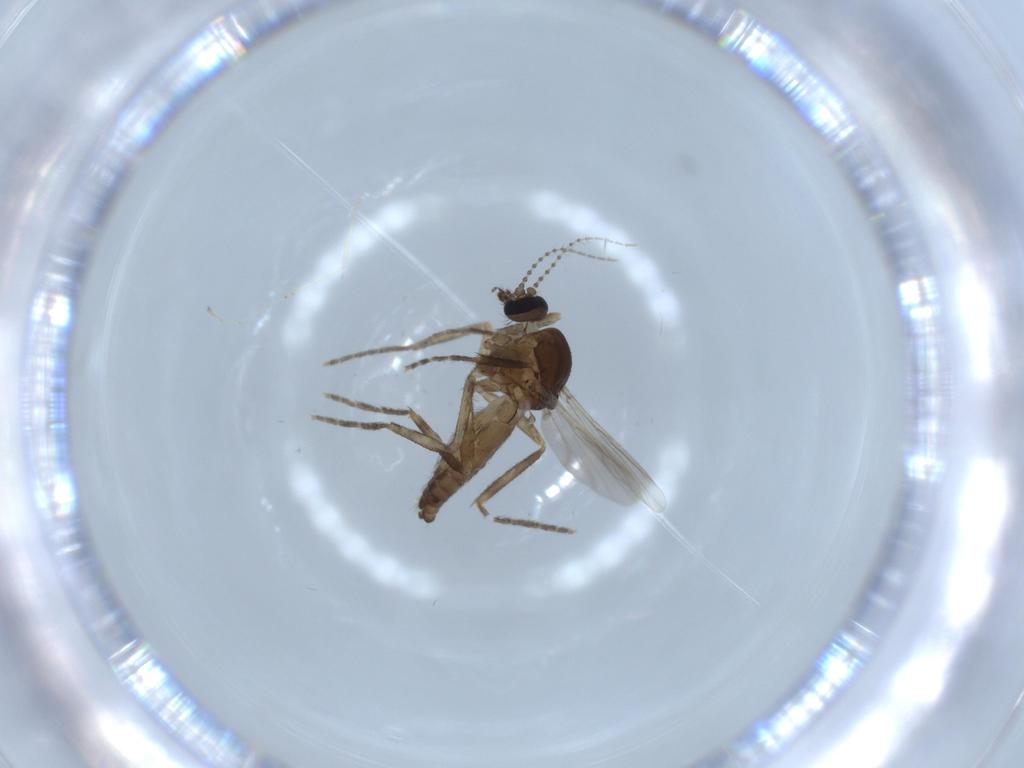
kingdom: Animalia
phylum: Arthropoda
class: Insecta
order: Diptera
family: Ceratopogonidae
